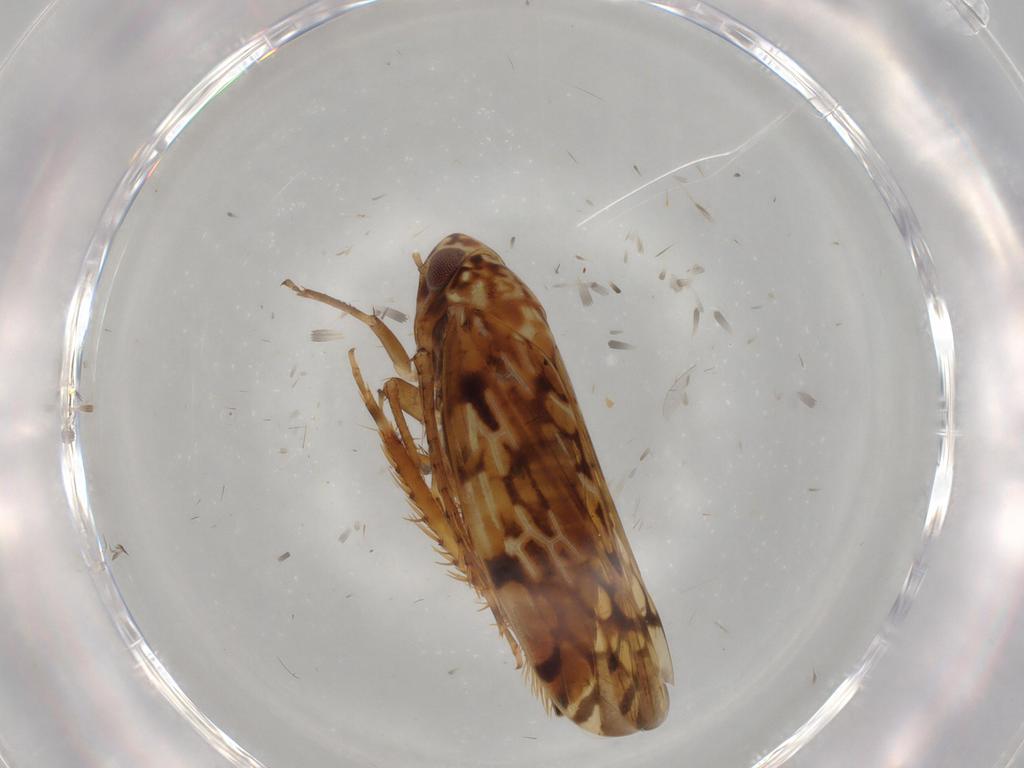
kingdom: Animalia
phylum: Arthropoda
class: Insecta
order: Hemiptera
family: Cicadellidae
